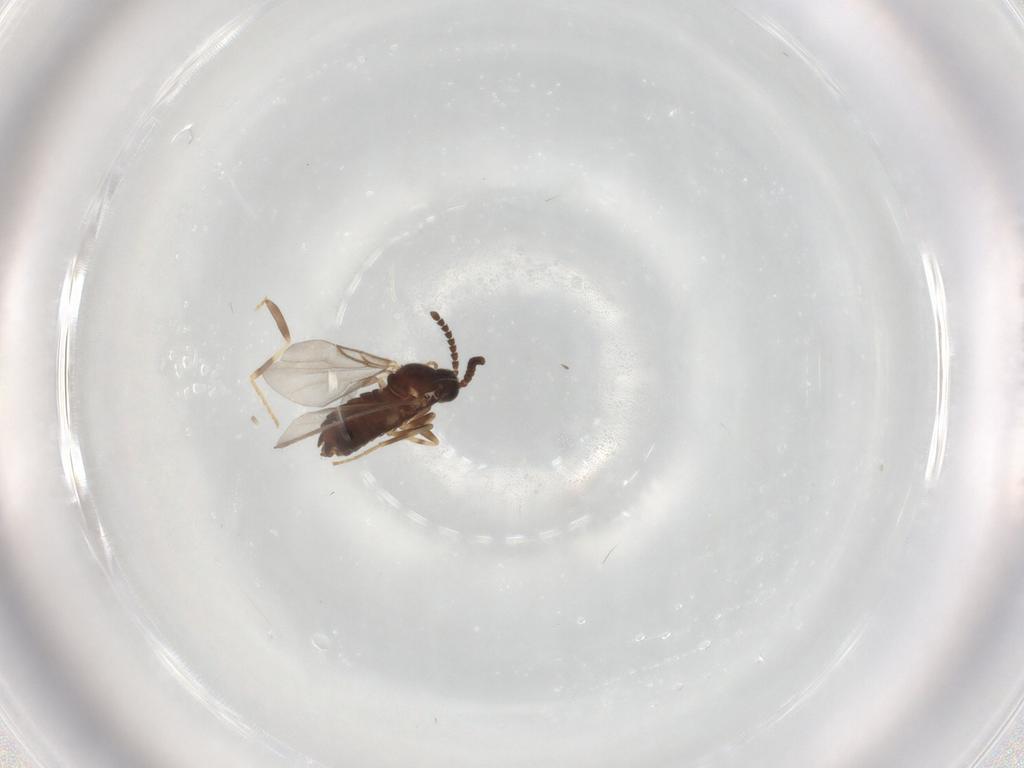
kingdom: Animalia
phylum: Arthropoda
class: Insecta
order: Diptera
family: Scatopsidae
